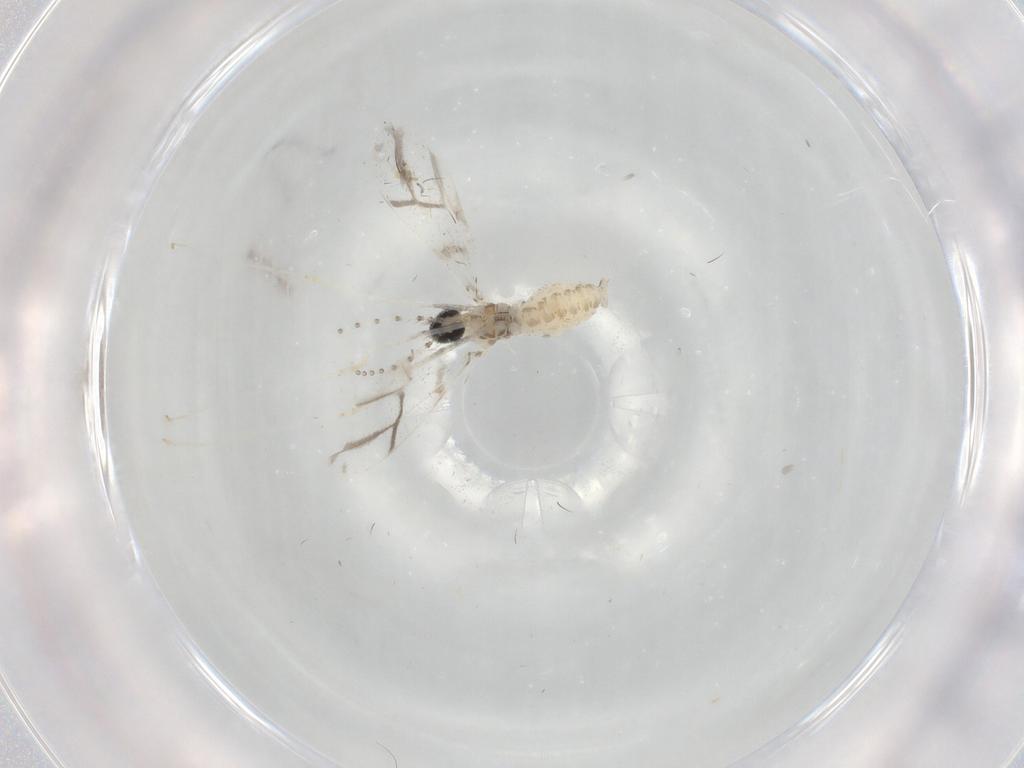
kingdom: Animalia
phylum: Arthropoda
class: Insecta
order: Diptera
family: Cecidomyiidae
